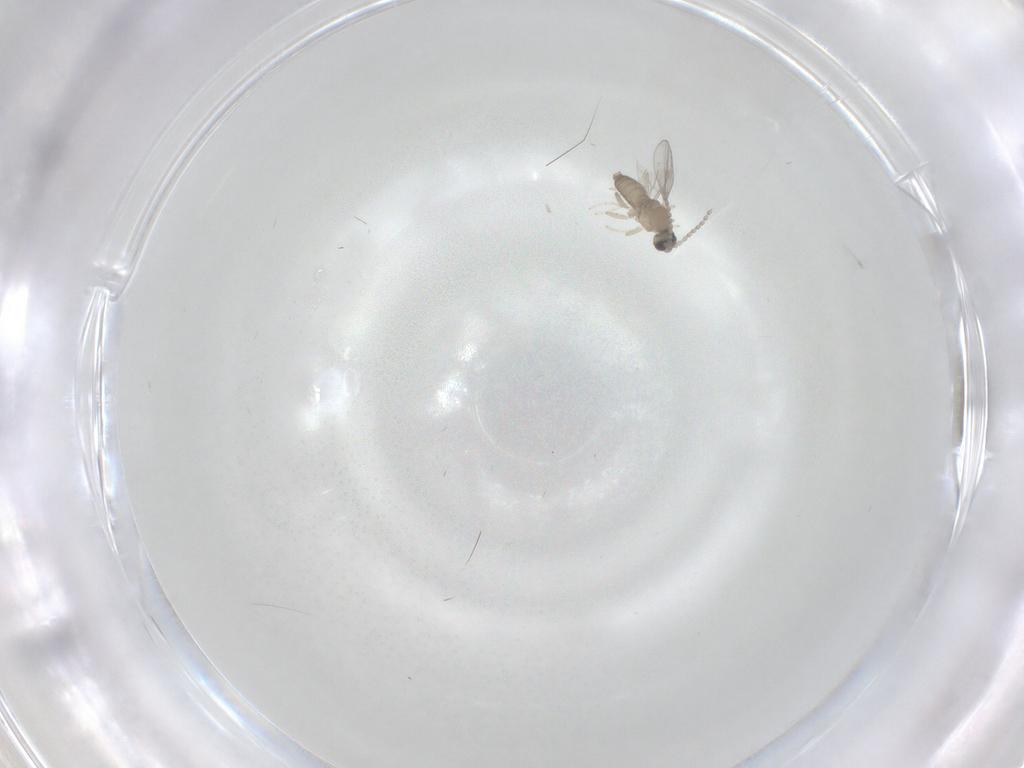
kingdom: Animalia
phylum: Arthropoda
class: Insecta
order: Diptera
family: Cecidomyiidae
